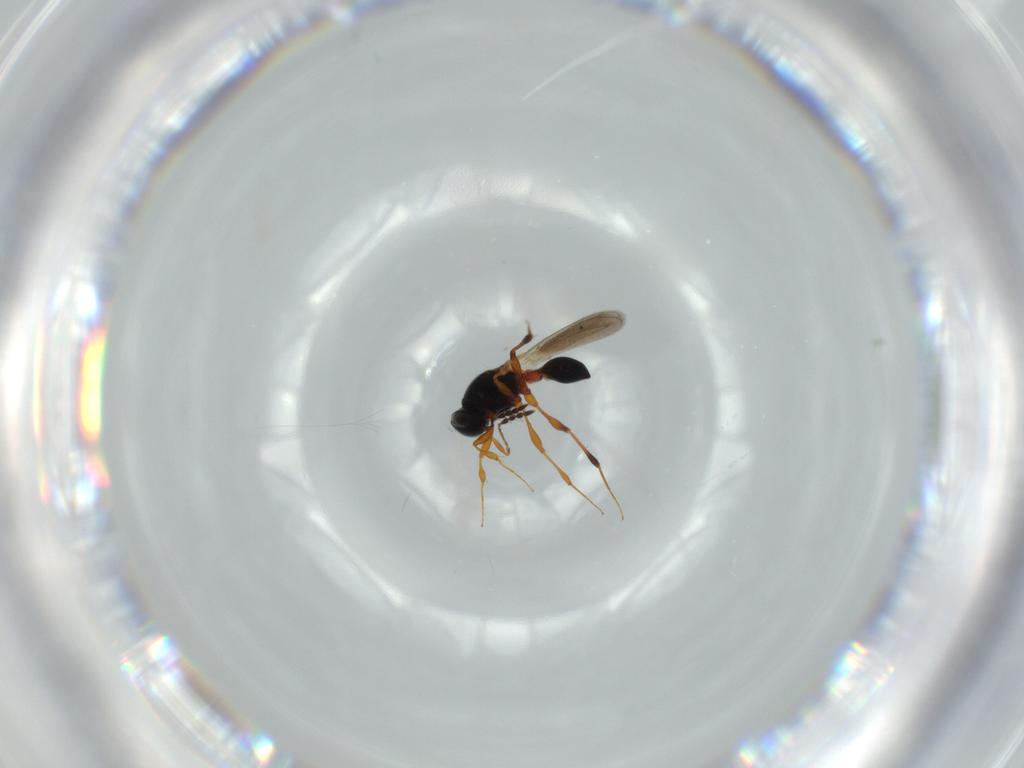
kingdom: Animalia
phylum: Arthropoda
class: Insecta
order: Hymenoptera
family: Platygastridae
